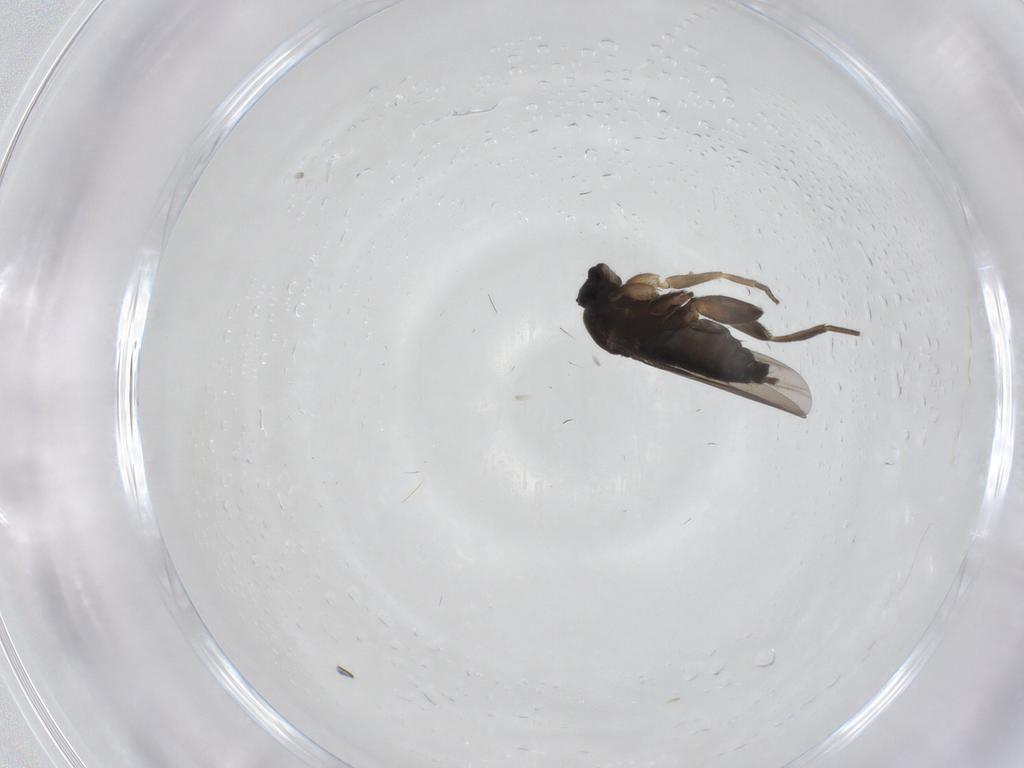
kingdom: Animalia
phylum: Arthropoda
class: Insecta
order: Diptera
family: Phoridae
